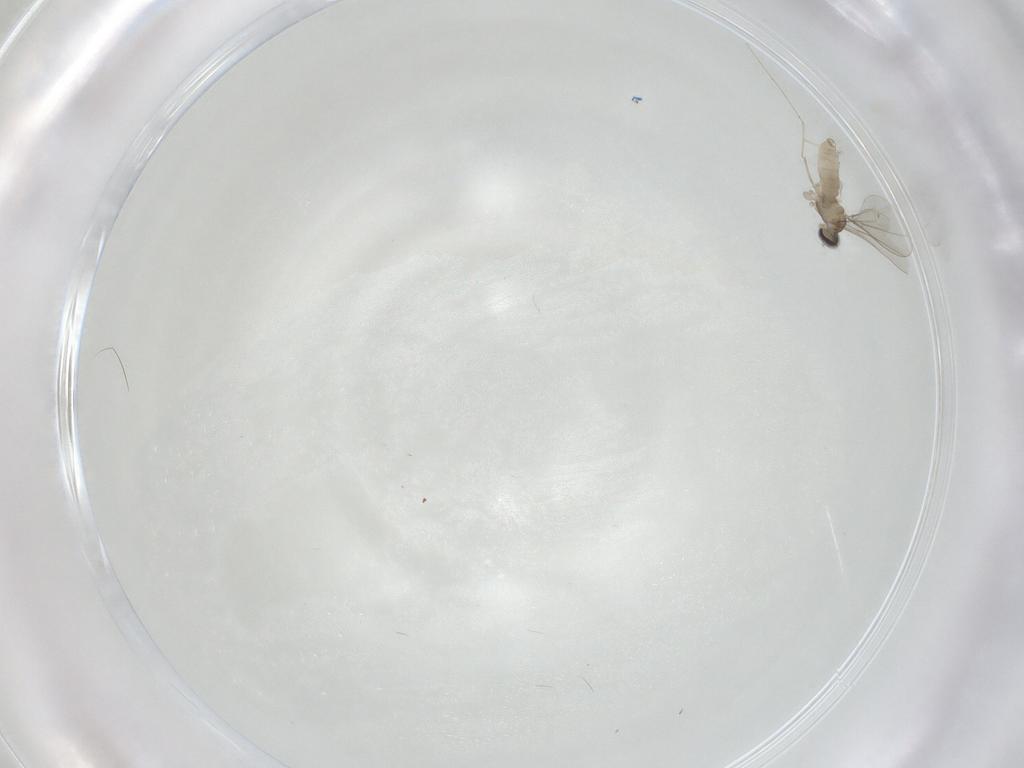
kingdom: Animalia
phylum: Arthropoda
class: Insecta
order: Diptera
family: Cecidomyiidae
